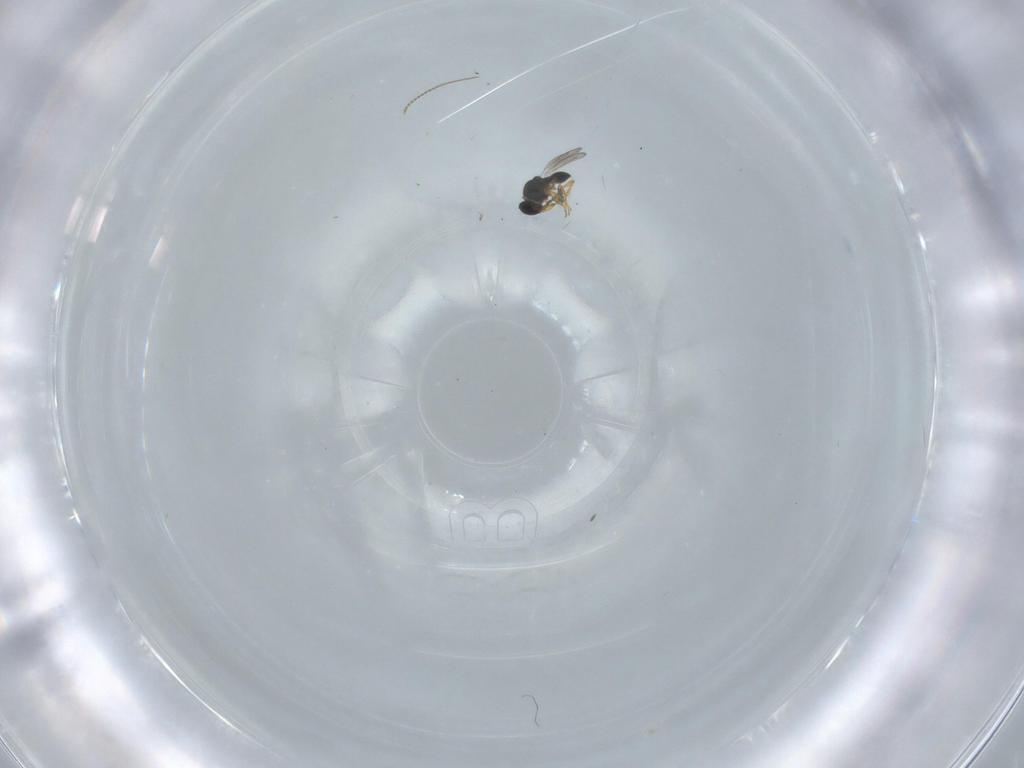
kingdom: Animalia
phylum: Arthropoda
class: Insecta
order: Hymenoptera
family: Platygastridae
